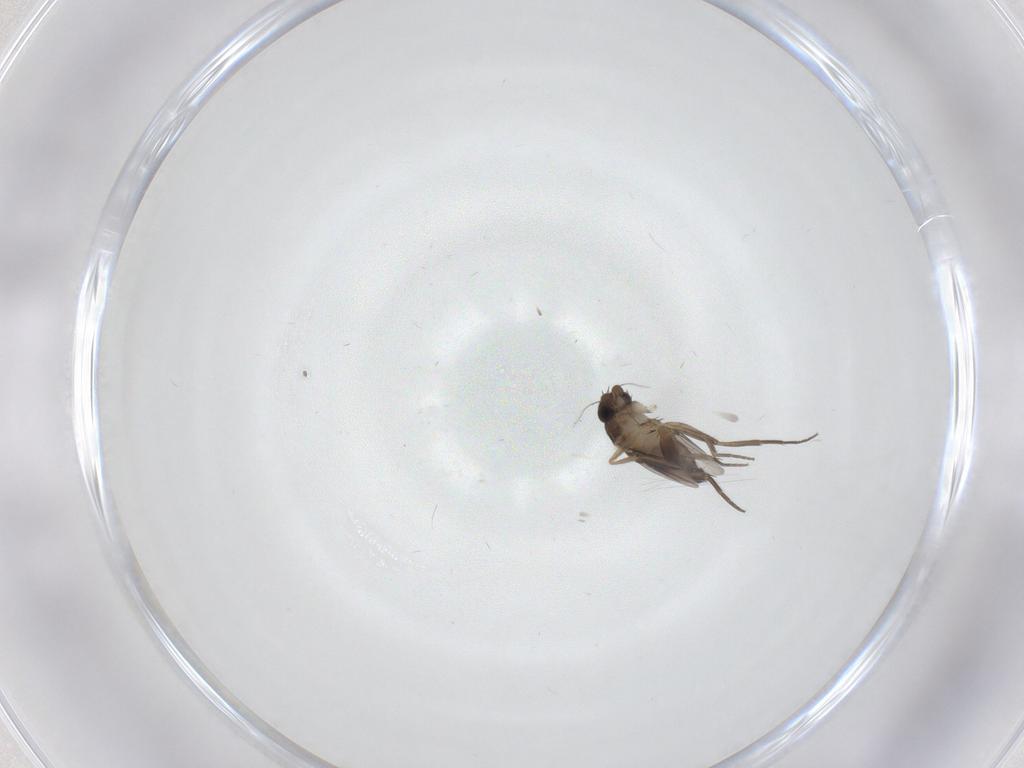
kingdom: Animalia
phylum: Arthropoda
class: Insecta
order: Diptera
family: Phoridae
